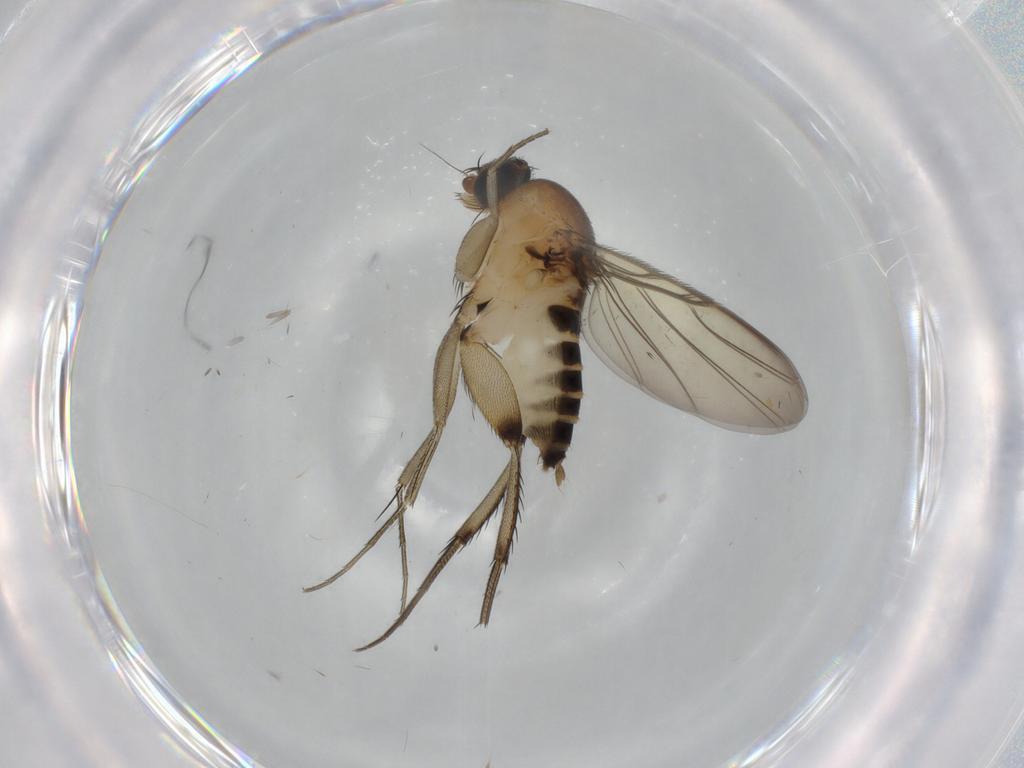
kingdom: Animalia
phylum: Arthropoda
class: Insecta
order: Diptera
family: Phoridae
